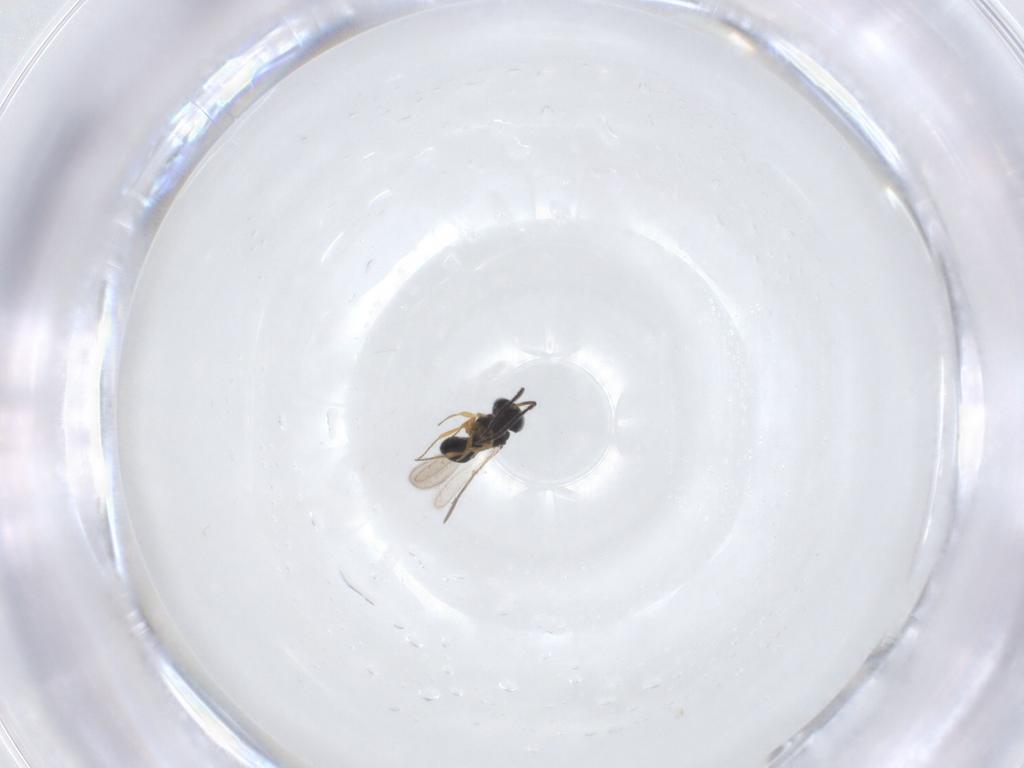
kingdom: Animalia
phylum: Arthropoda
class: Insecta
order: Hymenoptera
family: Scelionidae
